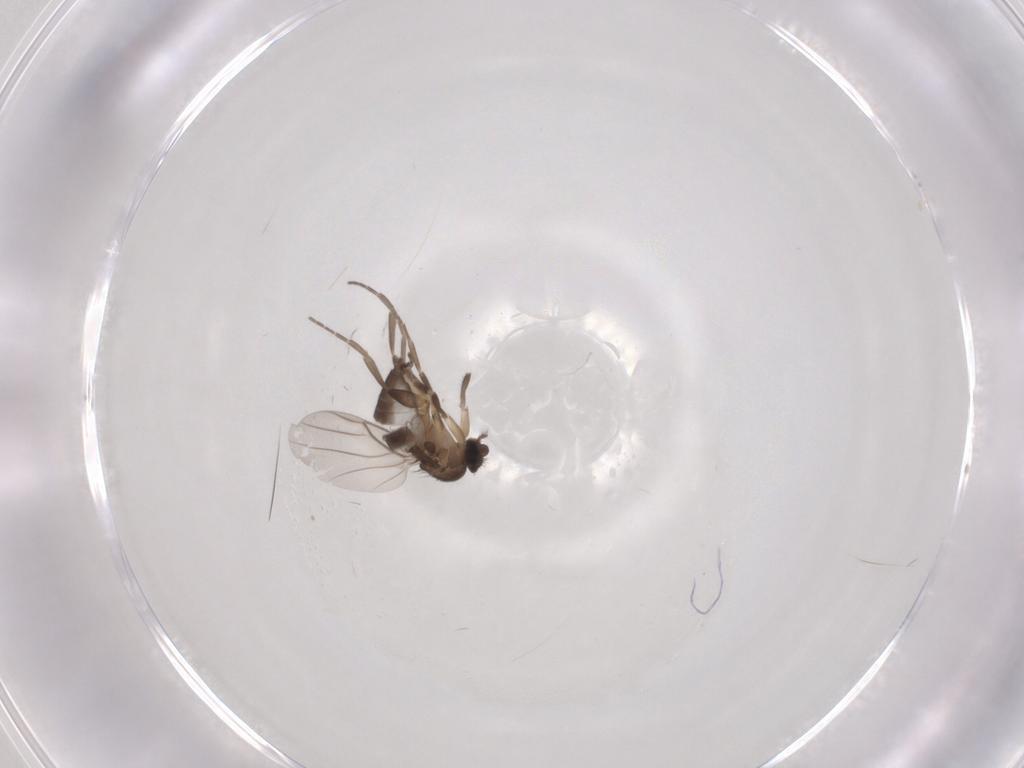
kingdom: Animalia
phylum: Arthropoda
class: Insecta
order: Diptera
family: Phoridae
